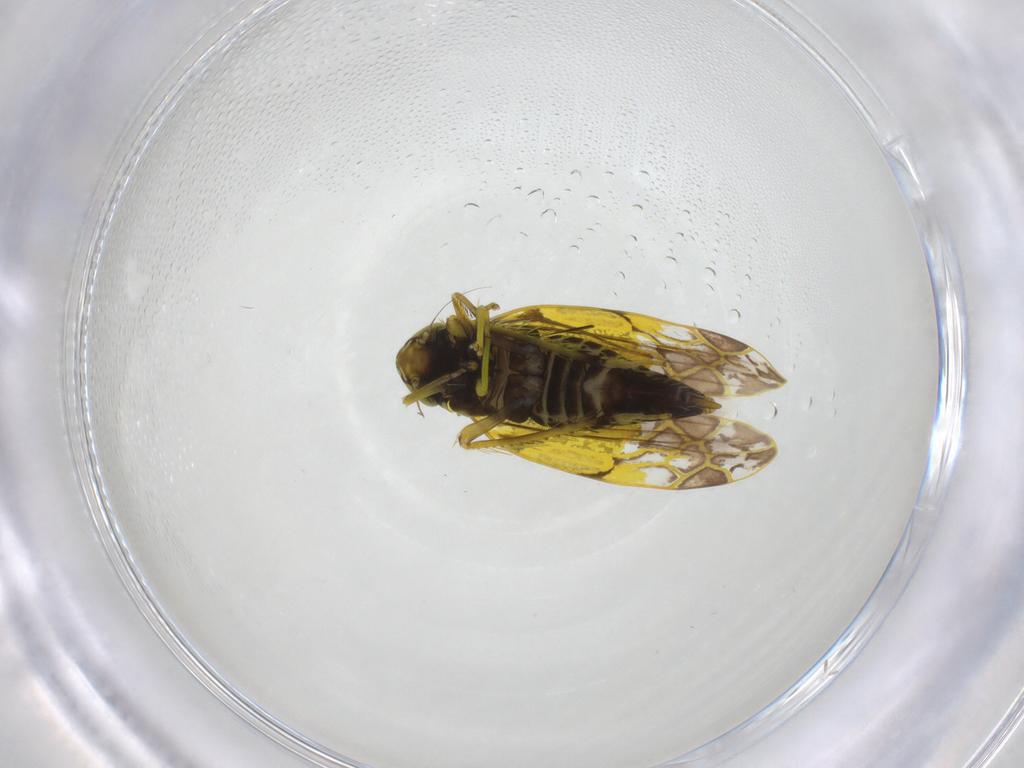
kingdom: Animalia
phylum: Arthropoda
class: Insecta
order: Hemiptera
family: Cicadellidae
